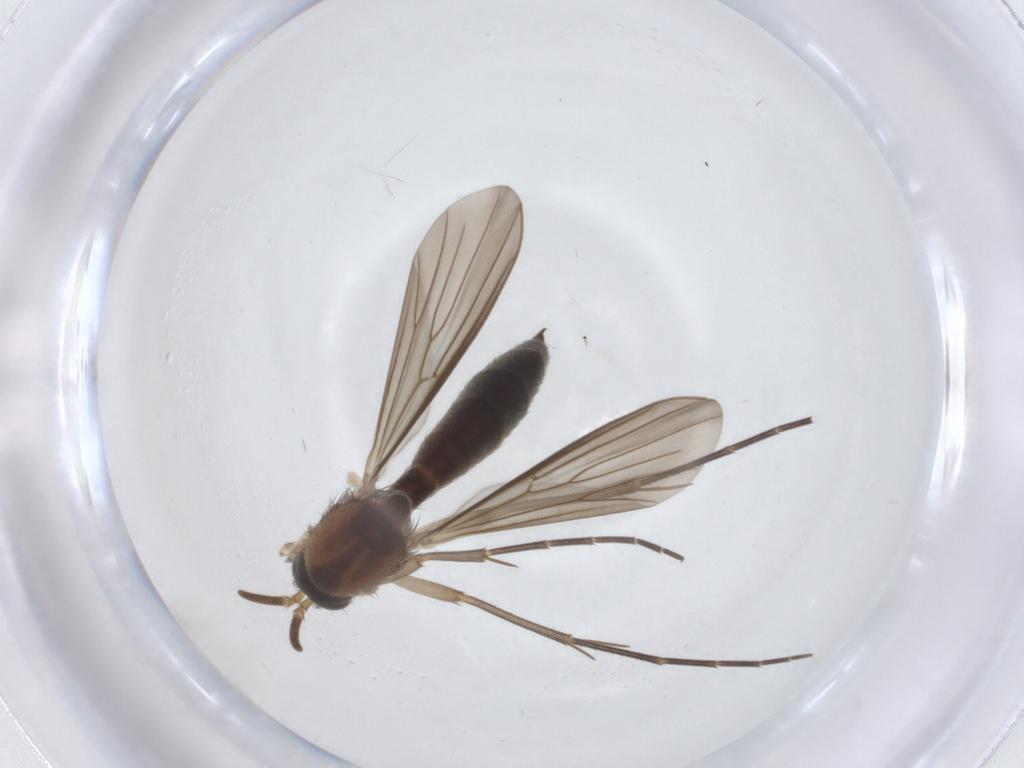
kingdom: Animalia
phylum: Arthropoda
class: Insecta
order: Diptera
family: Mycetophilidae
